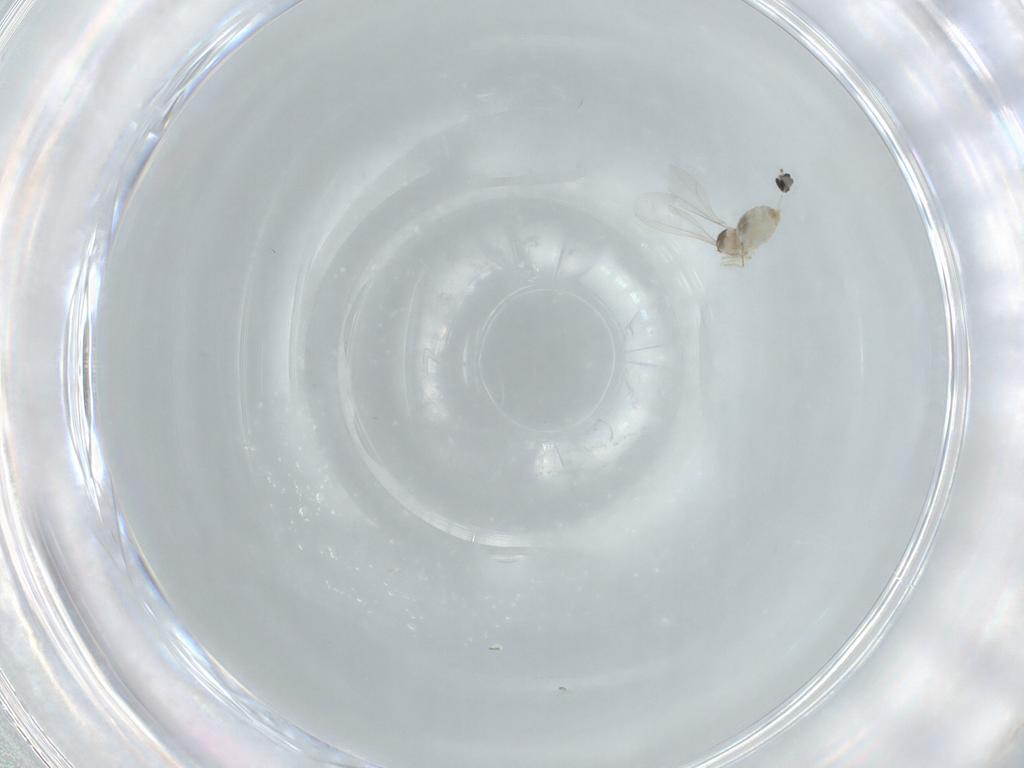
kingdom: Animalia
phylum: Arthropoda
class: Insecta
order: Diptera
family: Cecidomyiidae
